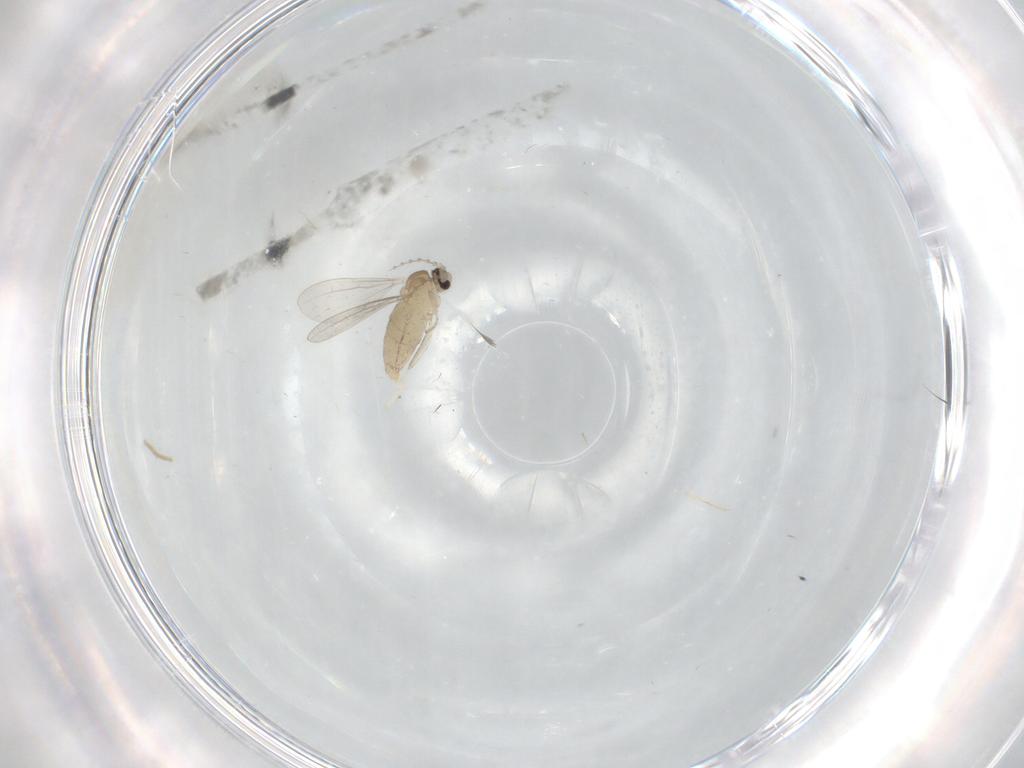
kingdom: Animalia
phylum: Arthropoda
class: Insecta
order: Diptera
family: Cecidomyiidae
